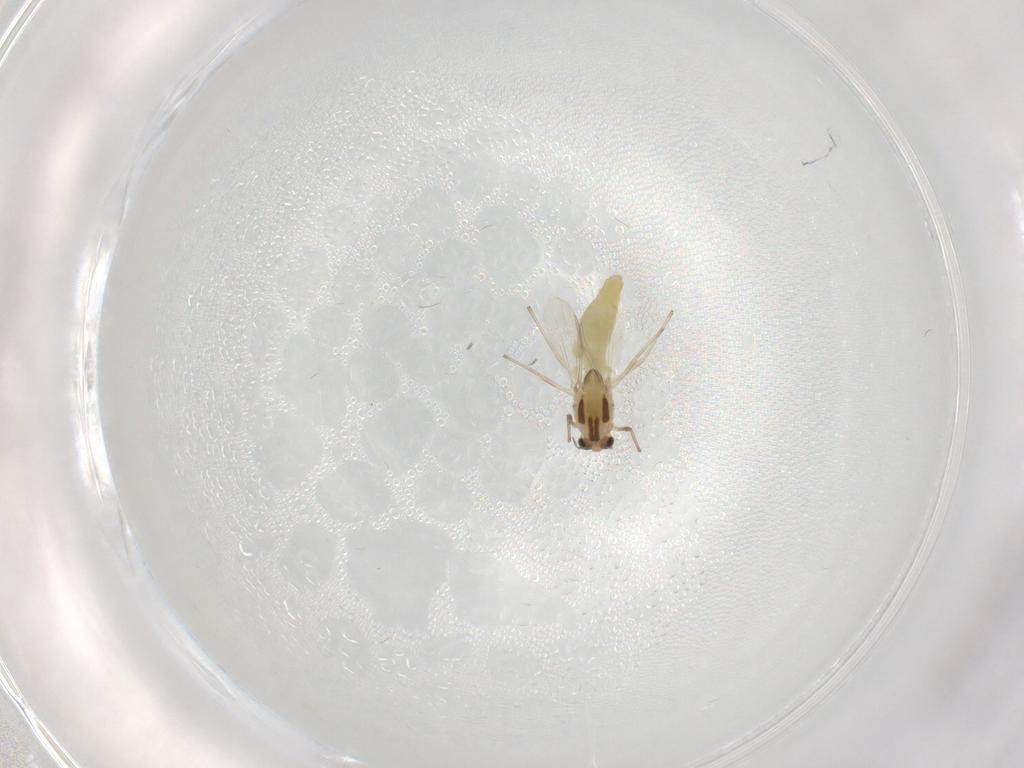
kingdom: Animalia
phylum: Arthropoda
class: Insecta
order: Diptera
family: Chironomidae
